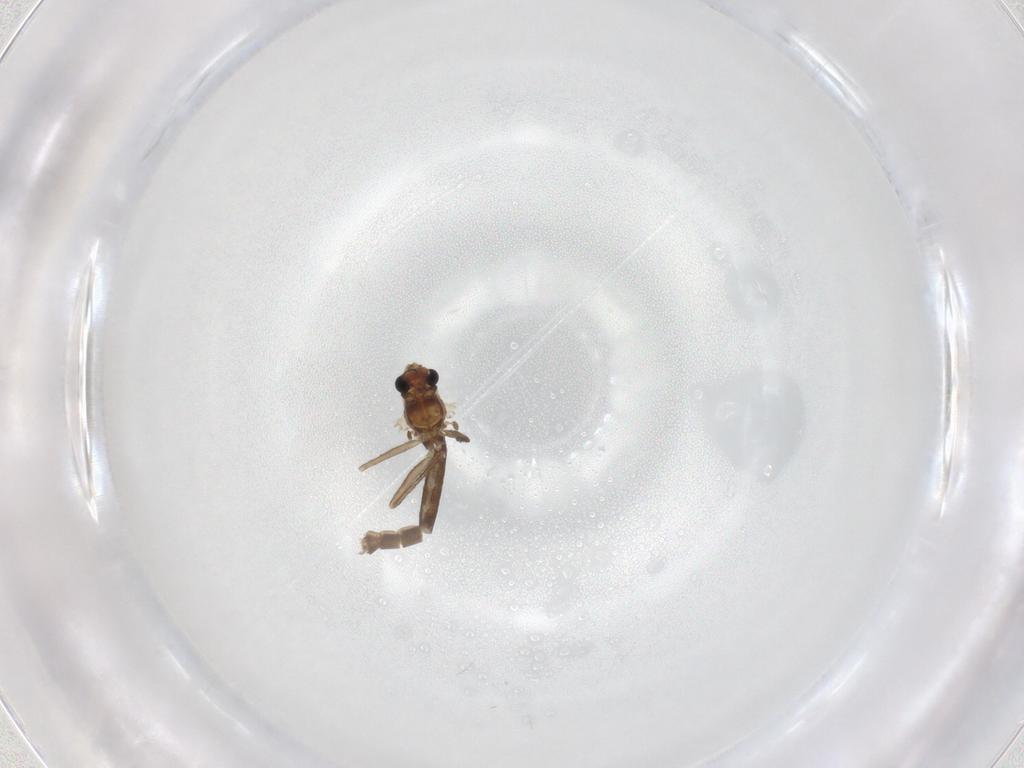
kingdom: Animalia
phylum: Arthropoda
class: Insecta
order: Diptera
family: Chironomidae
